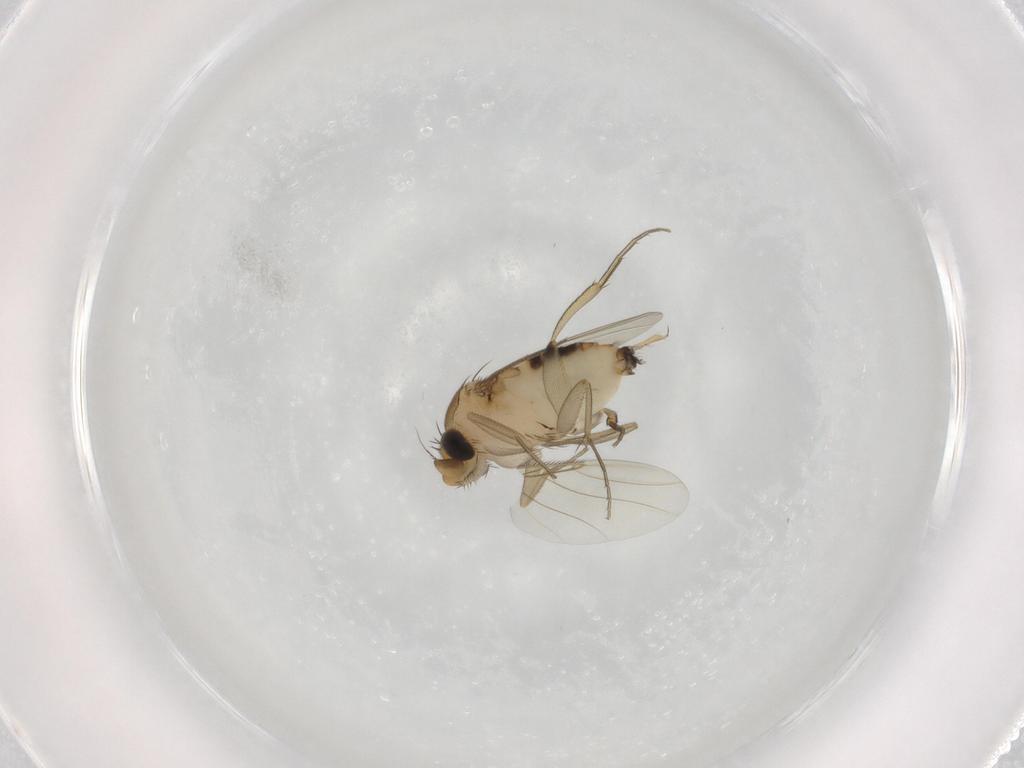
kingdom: Animalia
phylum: Arthropoda
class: Insecta
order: Diptera
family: Phoridae
